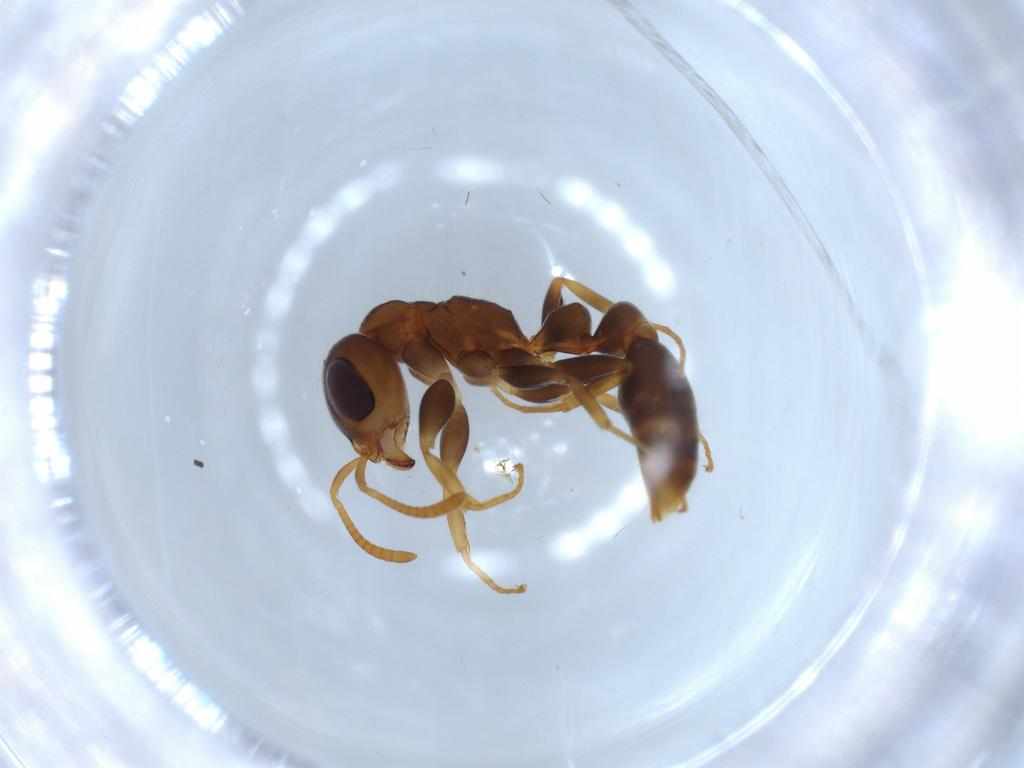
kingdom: Animalia
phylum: Arthropoda
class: Insecta
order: Hymenoptera
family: Formicidae
